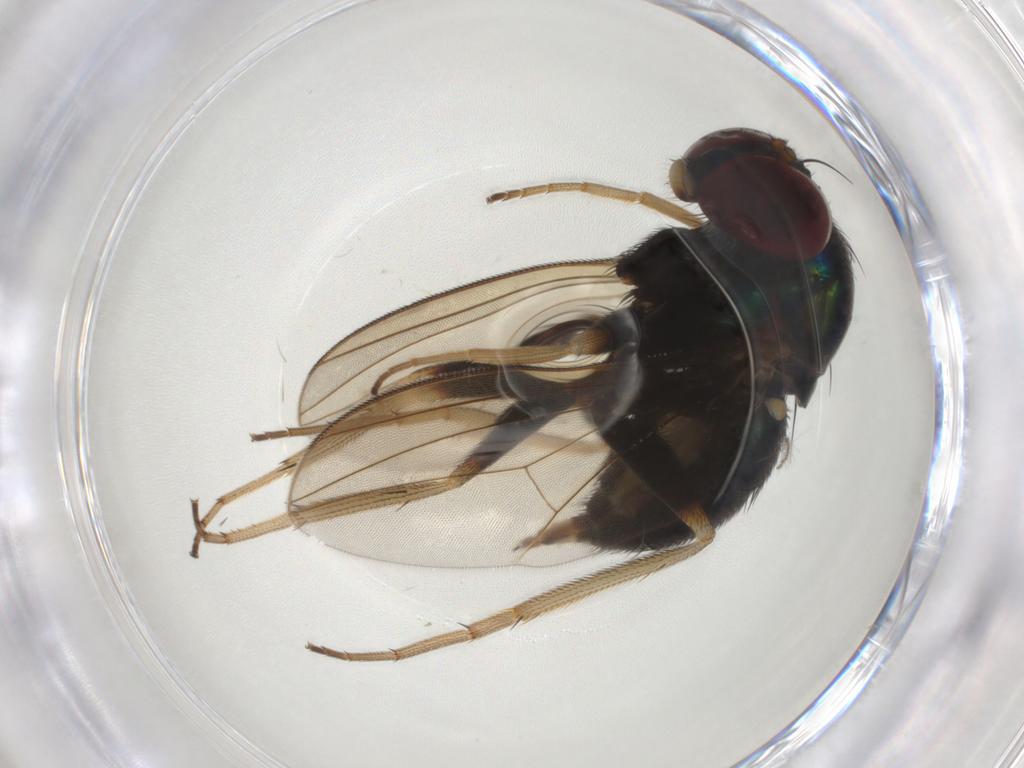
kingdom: Animalia
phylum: Arthropoda
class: Insecta
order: Diptera
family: Dolichopodidae
